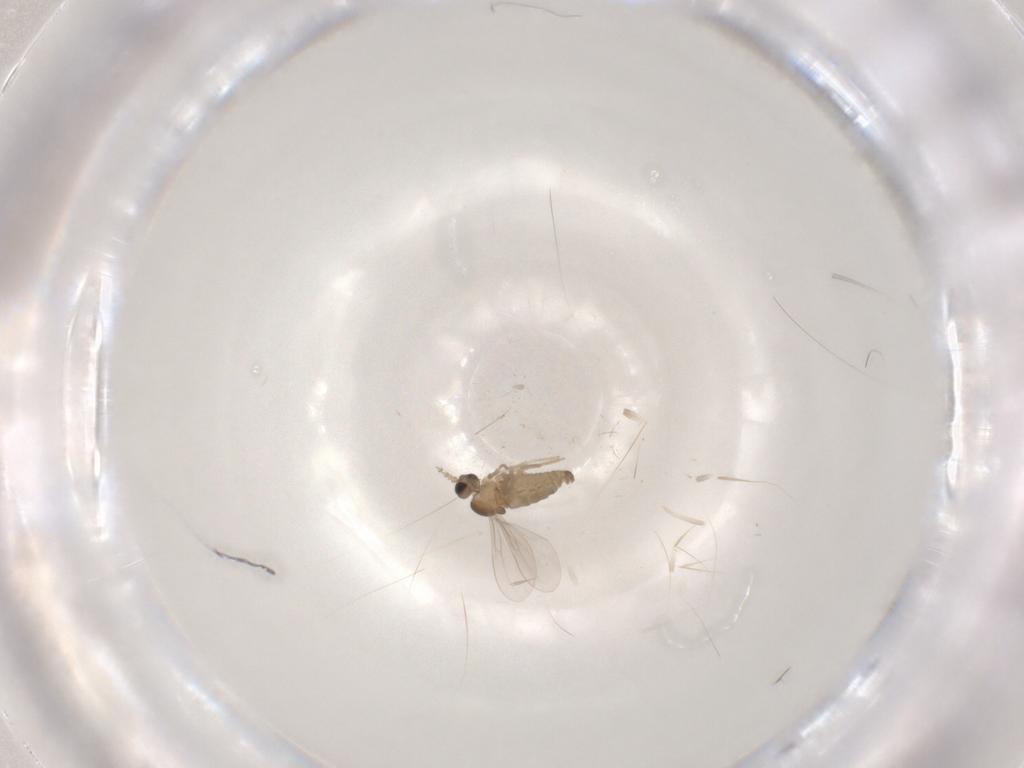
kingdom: Animalia
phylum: Arthropoda
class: Insecta
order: Diptera
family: Cecidomyiidae
